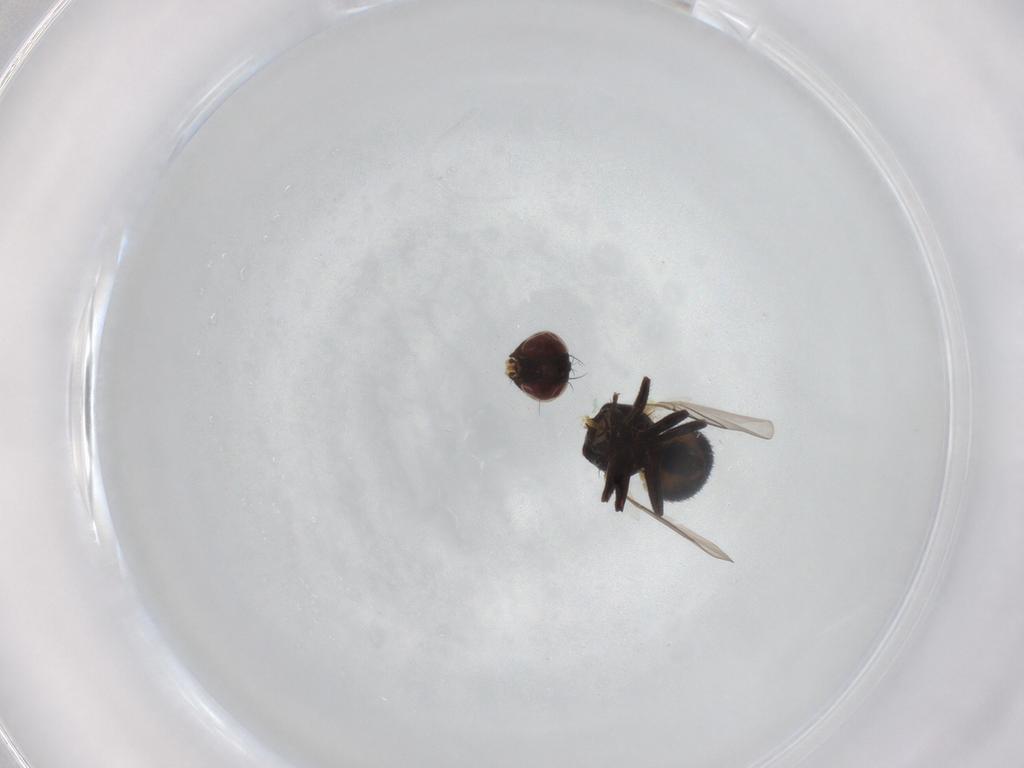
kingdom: Animalia
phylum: Arthropoda
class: Insecta
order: Diptera
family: Agromyzidae
